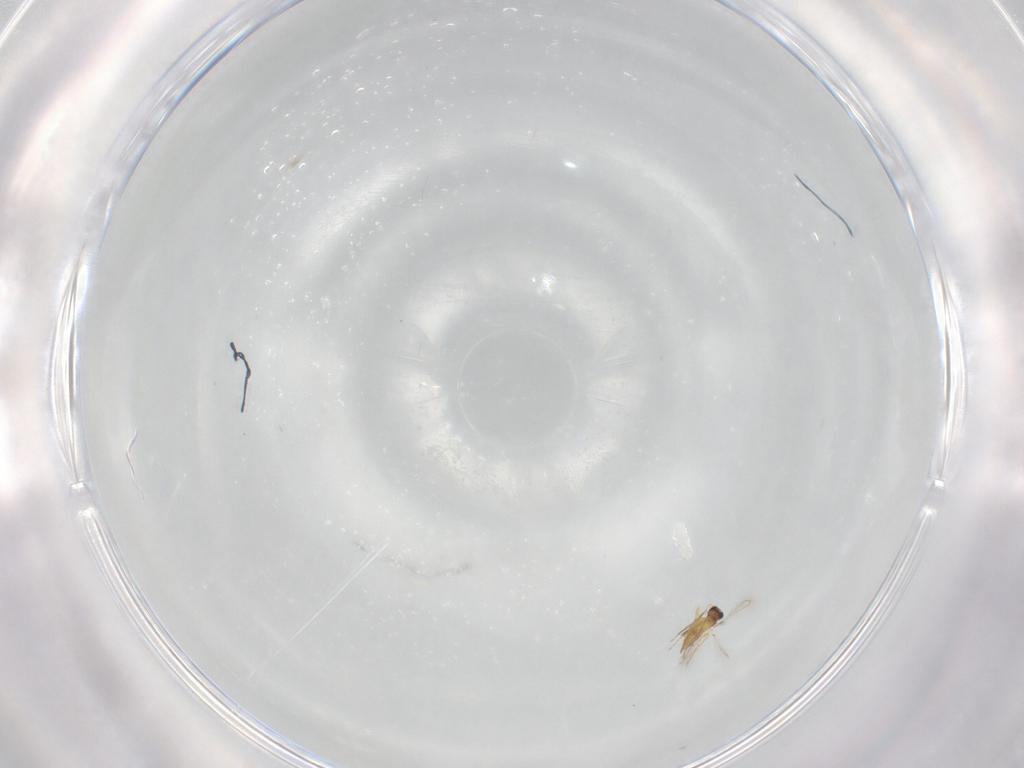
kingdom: Animalia
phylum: Arthropoda
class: Insecta
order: Hymenoptera
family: Mymaridae
